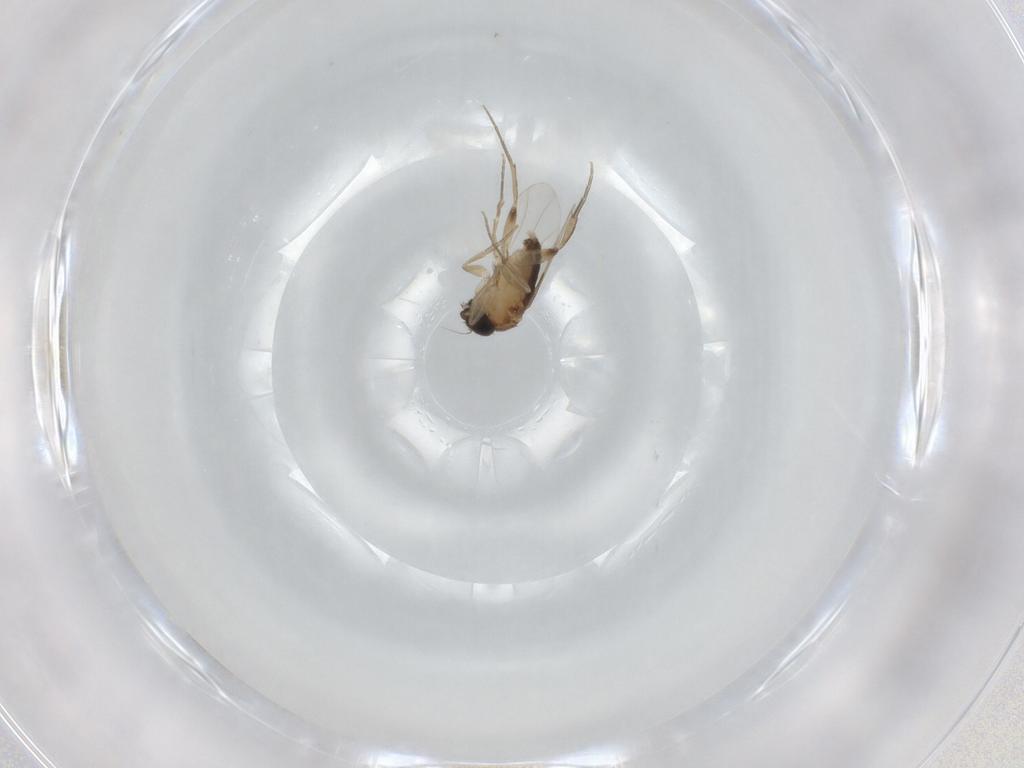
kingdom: Animalia
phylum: Arthropoda
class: Insecta
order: Diptera
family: Phoridae
